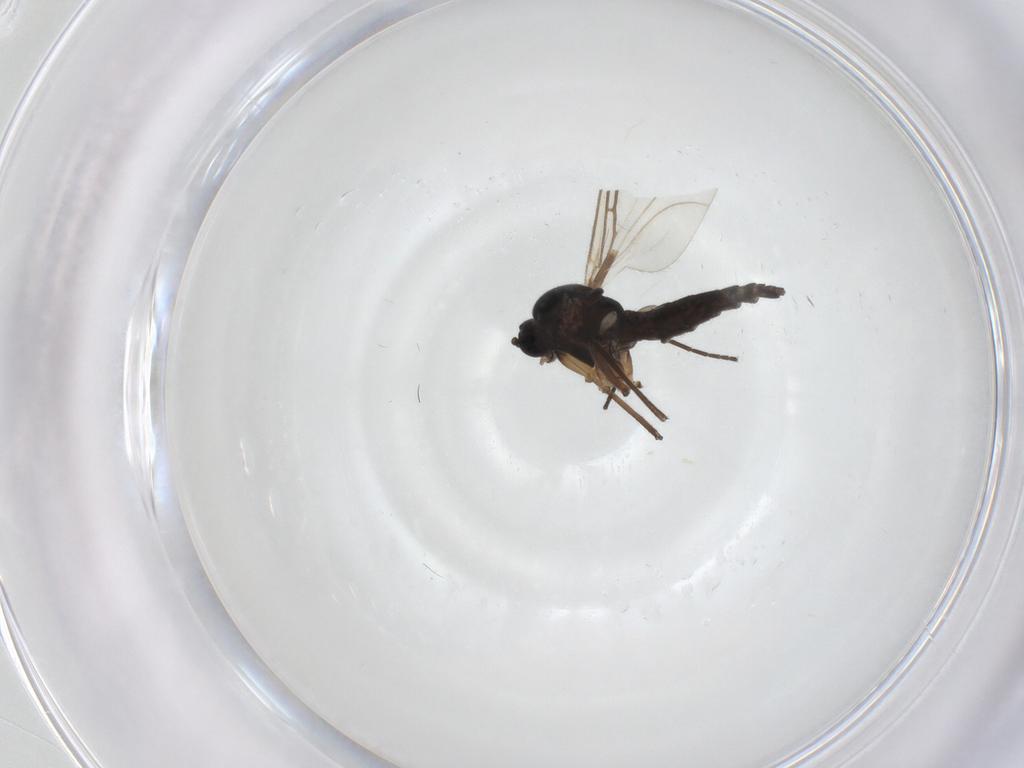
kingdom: Animalia
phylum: Arthropoda
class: Insecta
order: Diptera
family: Sciaridae
